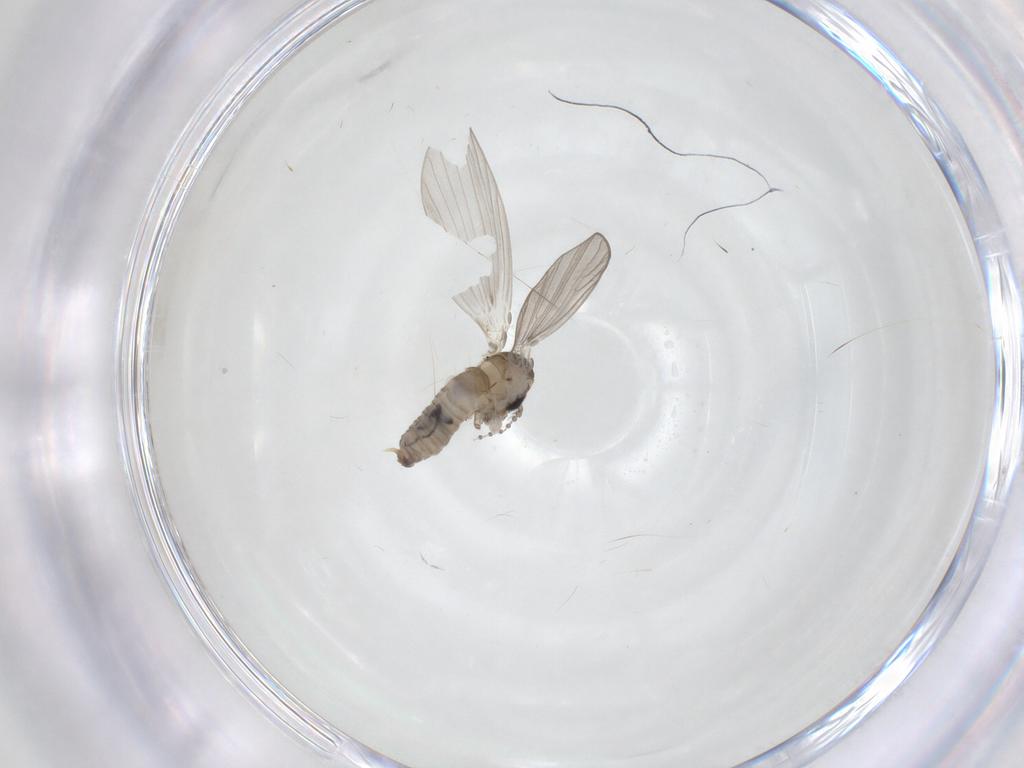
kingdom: Animalia
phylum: Arthropoda
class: Insecta
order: Diptera
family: Psychodidae
